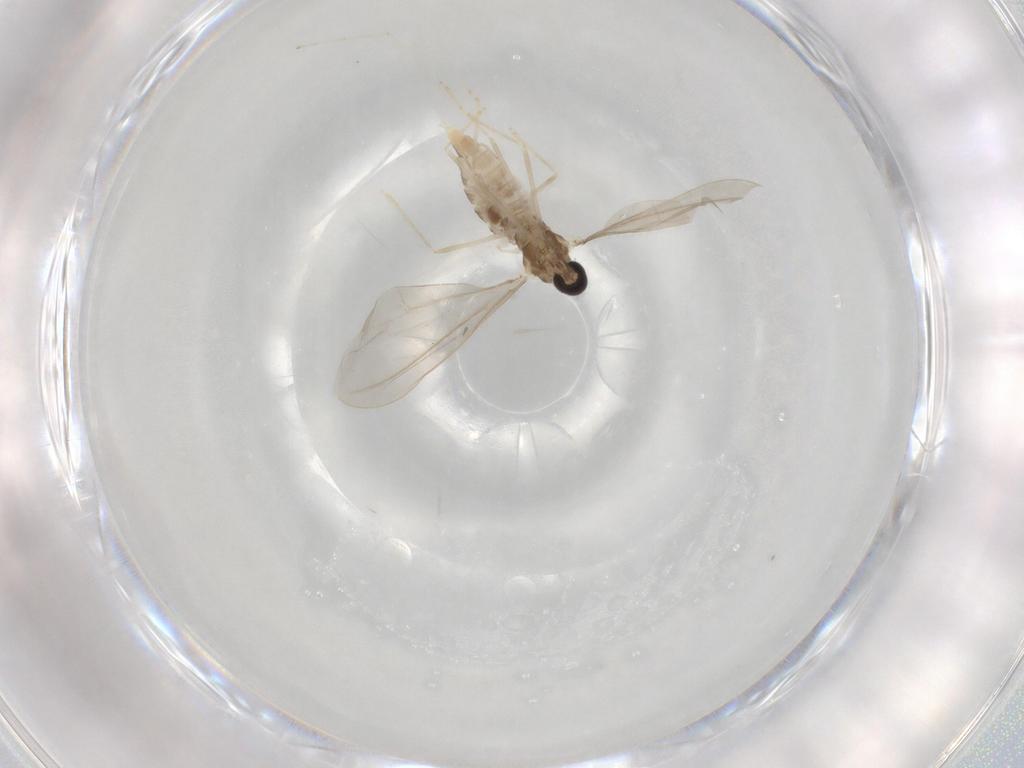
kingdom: Animalia
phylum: Arthropoda
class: Insecta
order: Diptera
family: Cecidomyiidae
